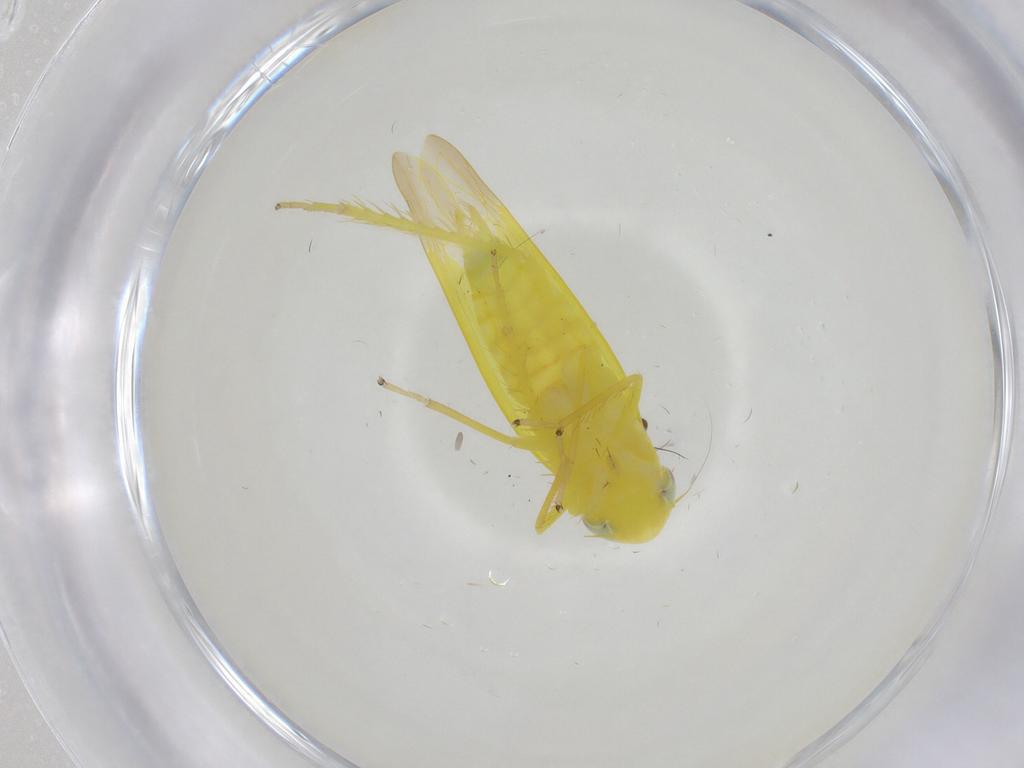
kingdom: Animalia
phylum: Arthropoda
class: Insecta
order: Hemiptera
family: Cicadellidae
